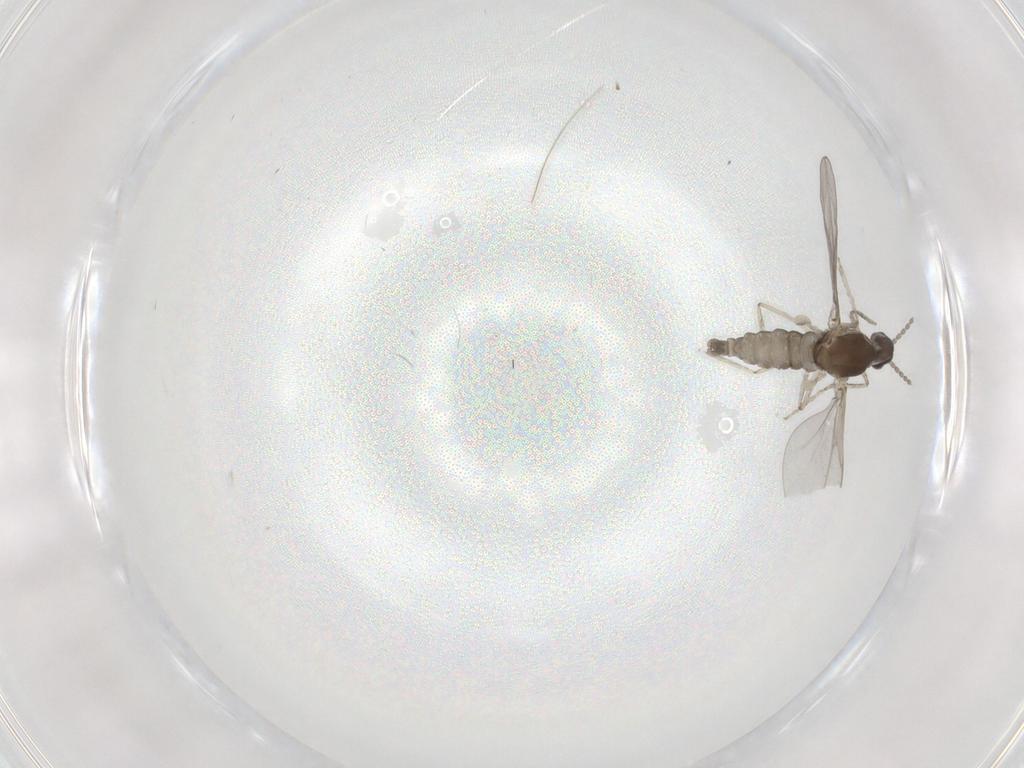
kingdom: Animalia
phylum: Arthropoda
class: Insecta
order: Diptera
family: Cecidomyiidae
